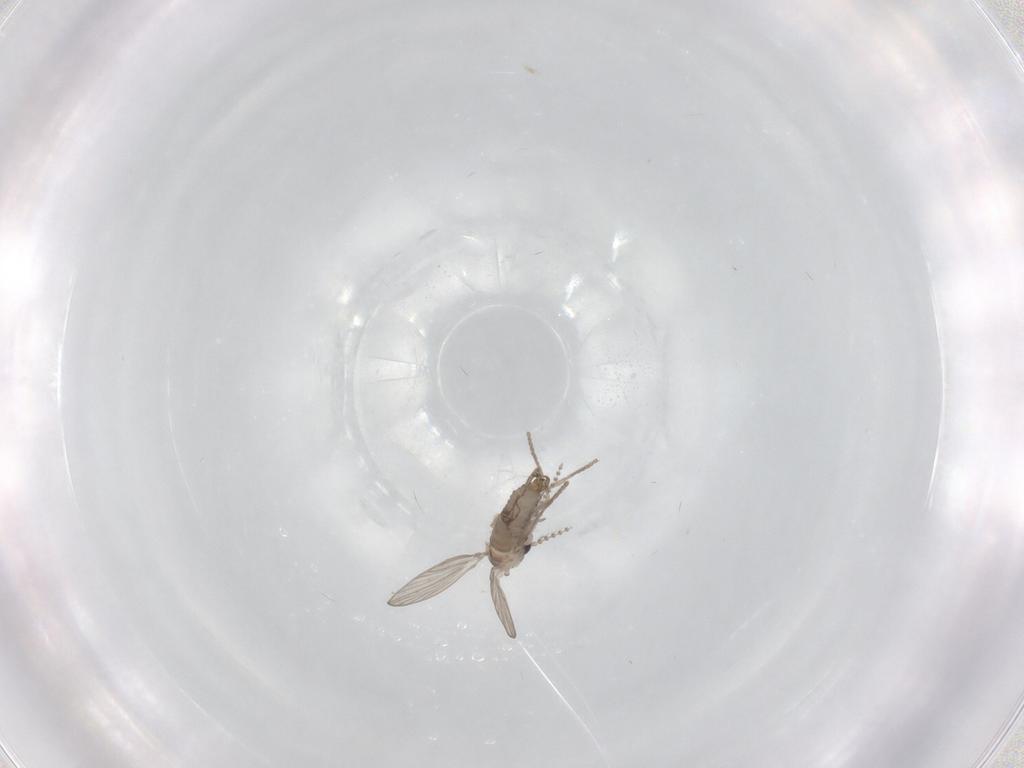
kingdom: Animalia
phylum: Arthropoda
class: Insecta
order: Diptera
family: Psychodidae
